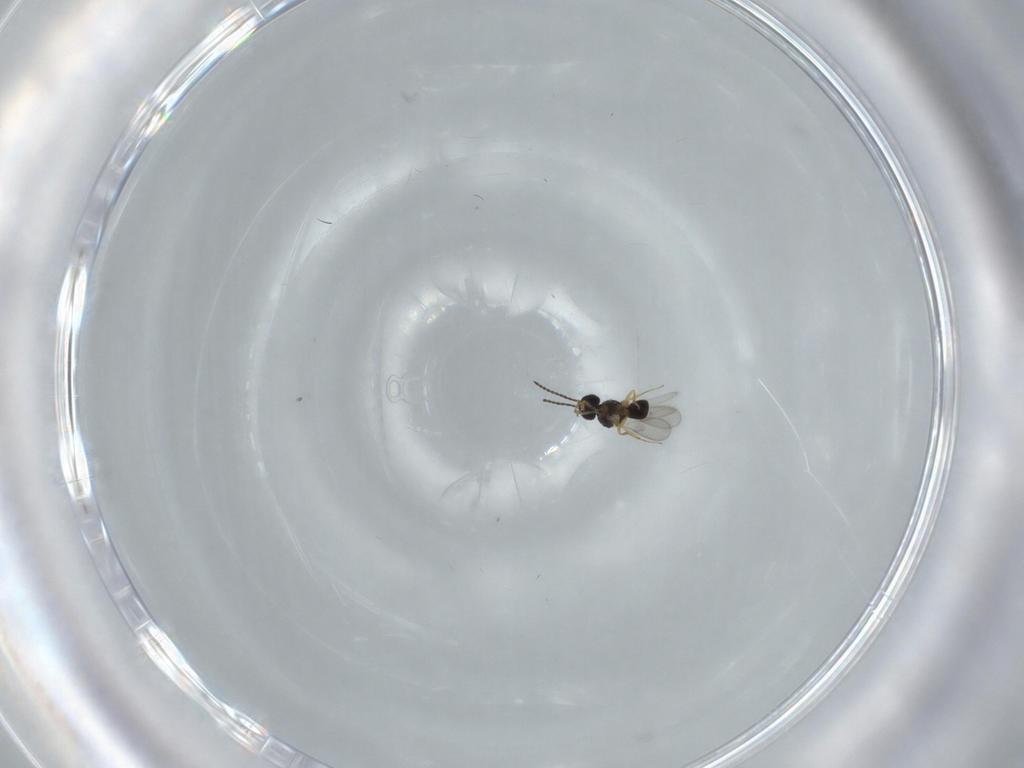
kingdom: Animalia
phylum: Arthropoda
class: Insecta
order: Hymenoptera
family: Scelionidae
